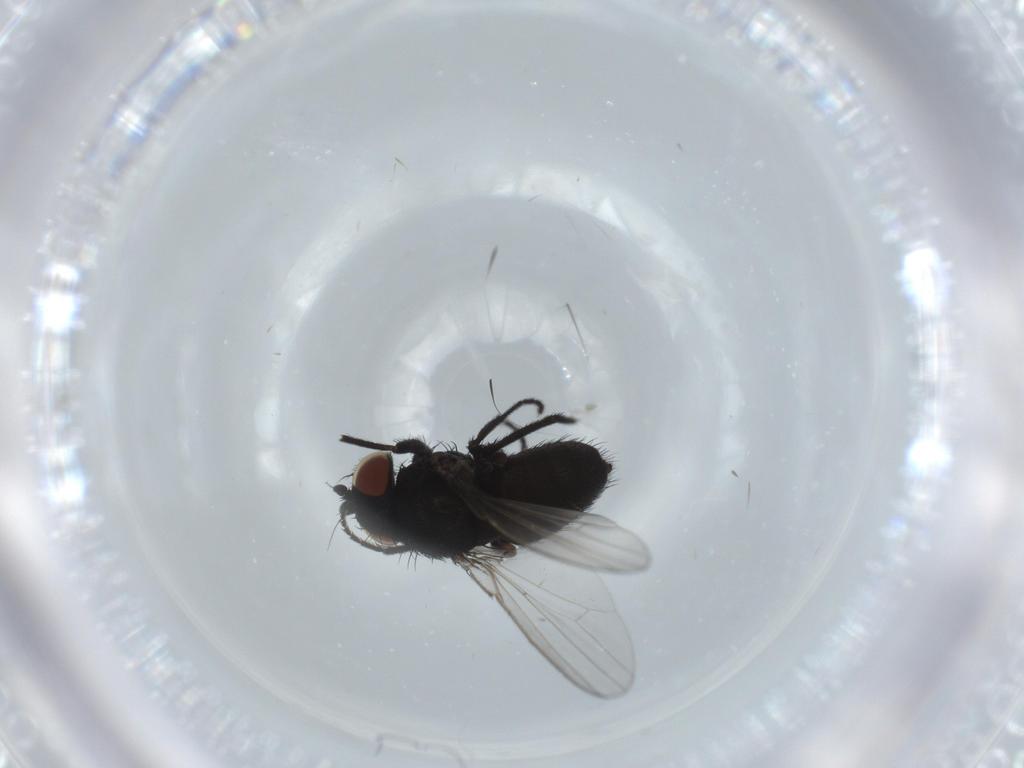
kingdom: Animalia
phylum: Arthropoda
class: Insecta
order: Diptera
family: Milichiidae
